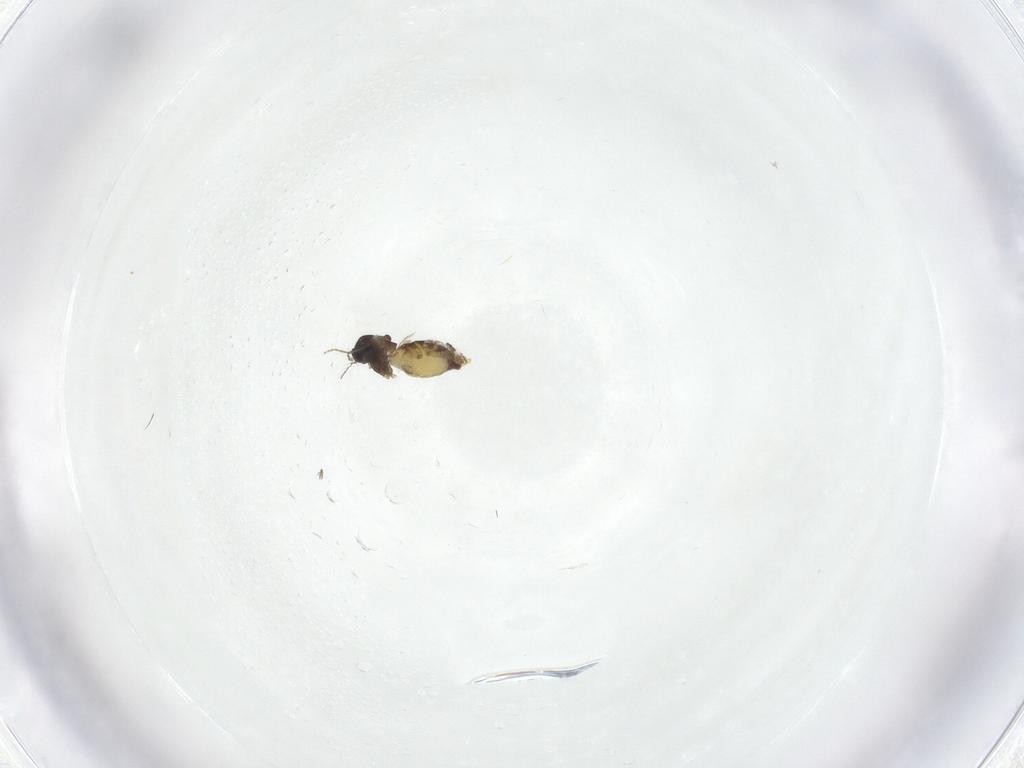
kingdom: Animalia
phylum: Arthropoda
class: Insecta
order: Diptera
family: Chironomidae
